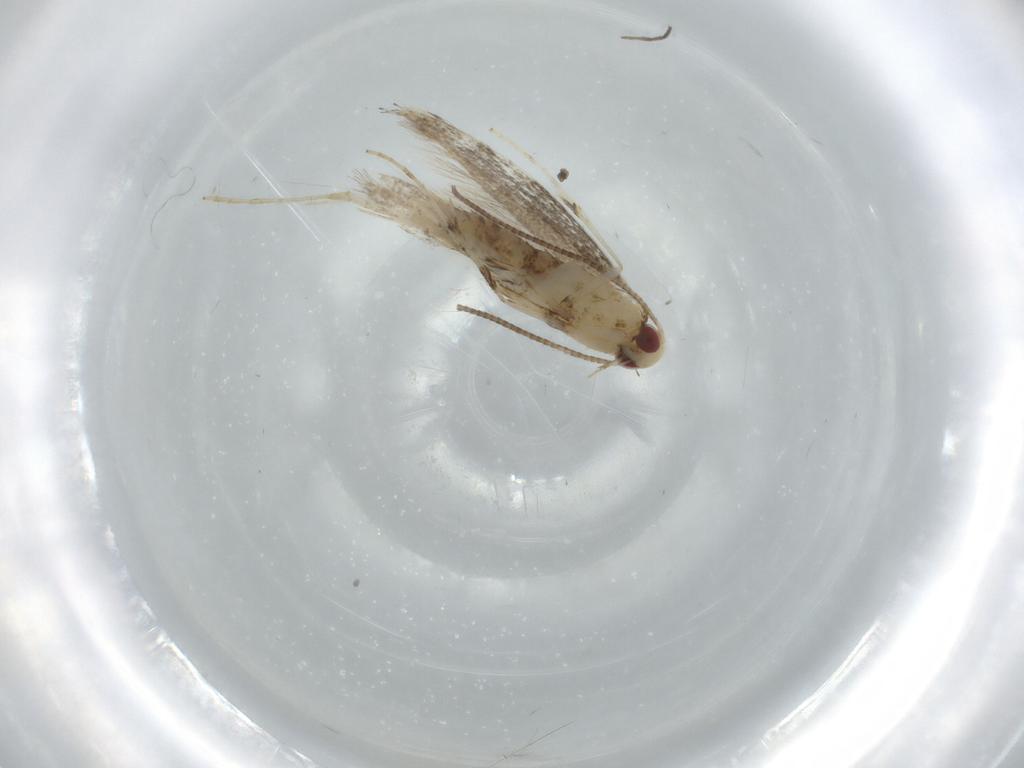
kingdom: Animalia
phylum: Arthropoda
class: Insecta
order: Lepidoptera
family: Gracillariidae
